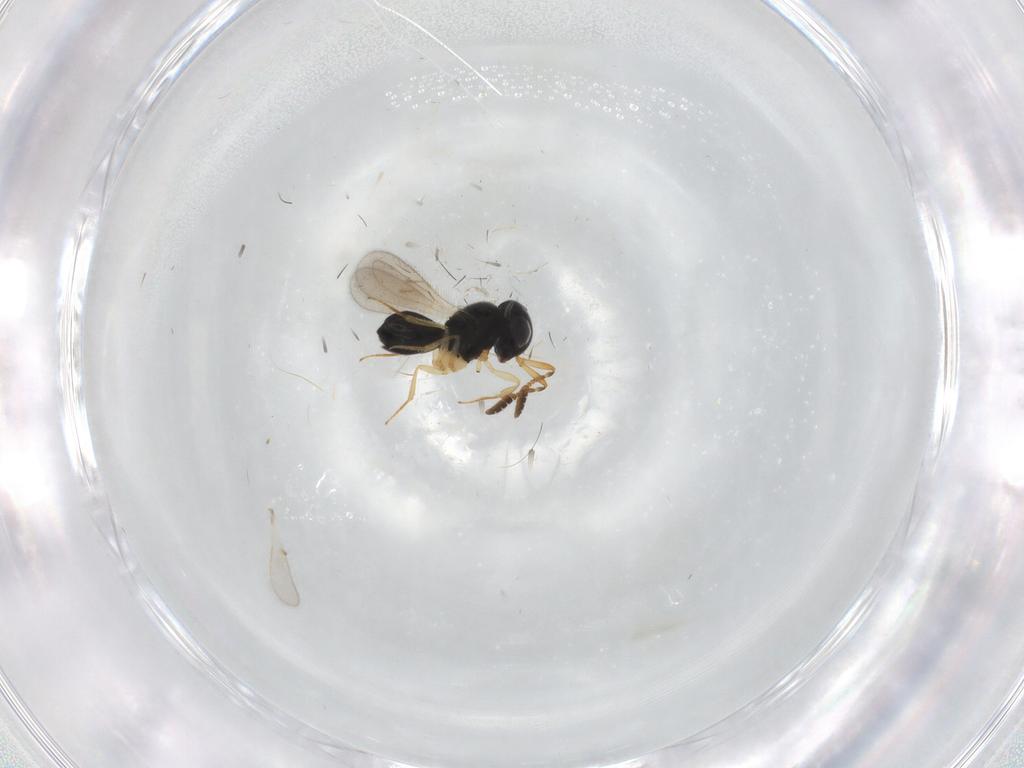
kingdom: Animalia
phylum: Arthropoda
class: Insecta
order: Hymenoptera
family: Scelionidae
